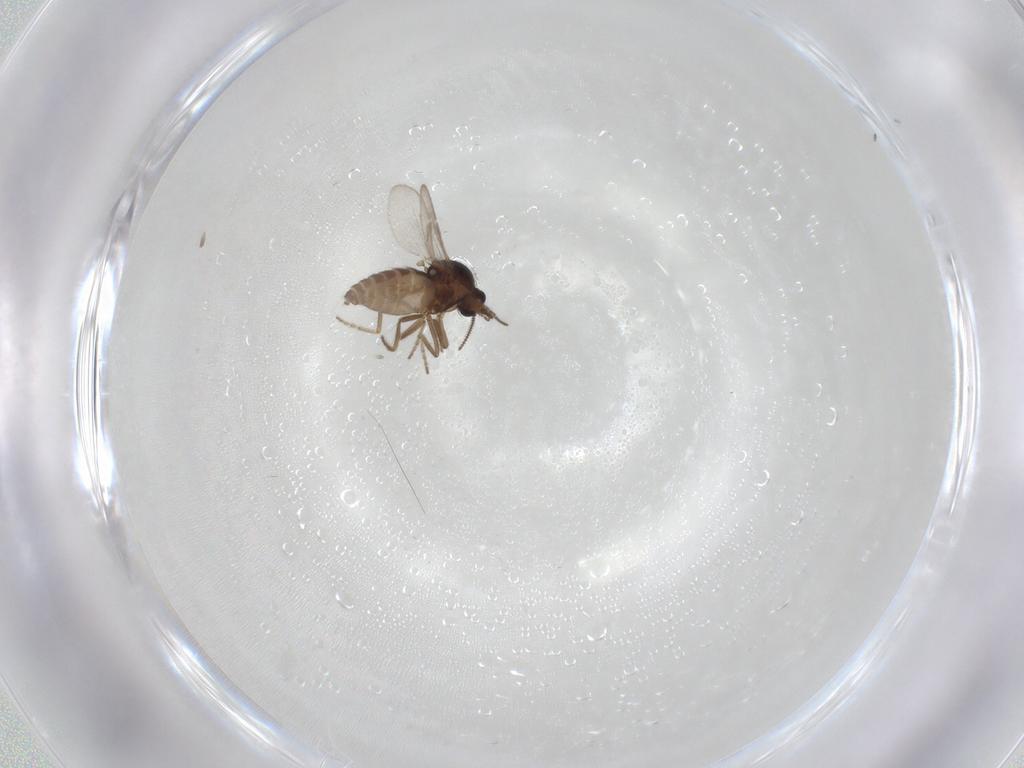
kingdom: Animalia
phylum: Arthropoda
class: Insecta
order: Diptera
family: Ceratopogonidae
